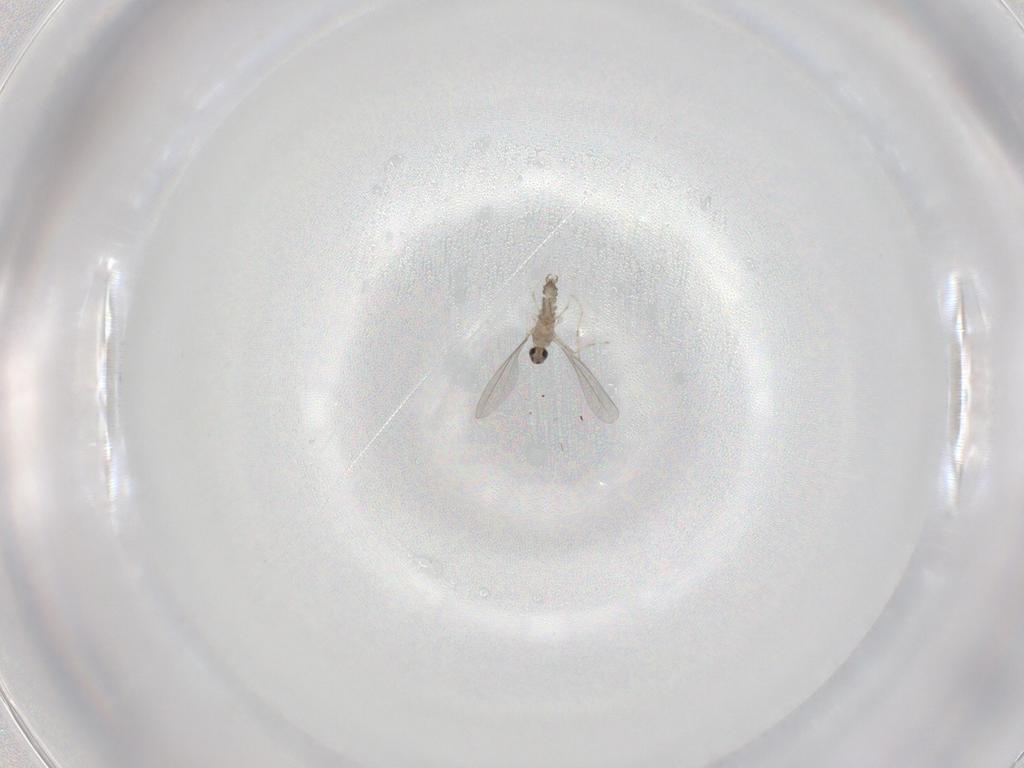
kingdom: Animalia
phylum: Arthropoda
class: Insecta
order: Diptera
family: Cecidomyiidae
